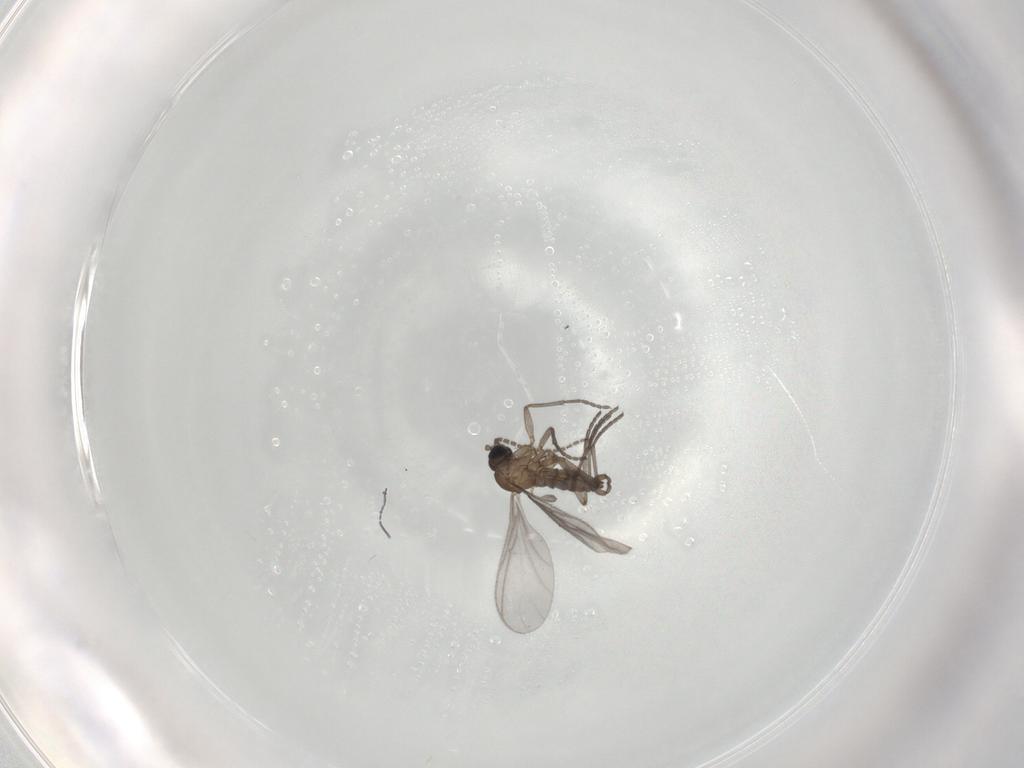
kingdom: Animalia
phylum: Arthropoda
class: Insecta
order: Diptera
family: Sciaridae
